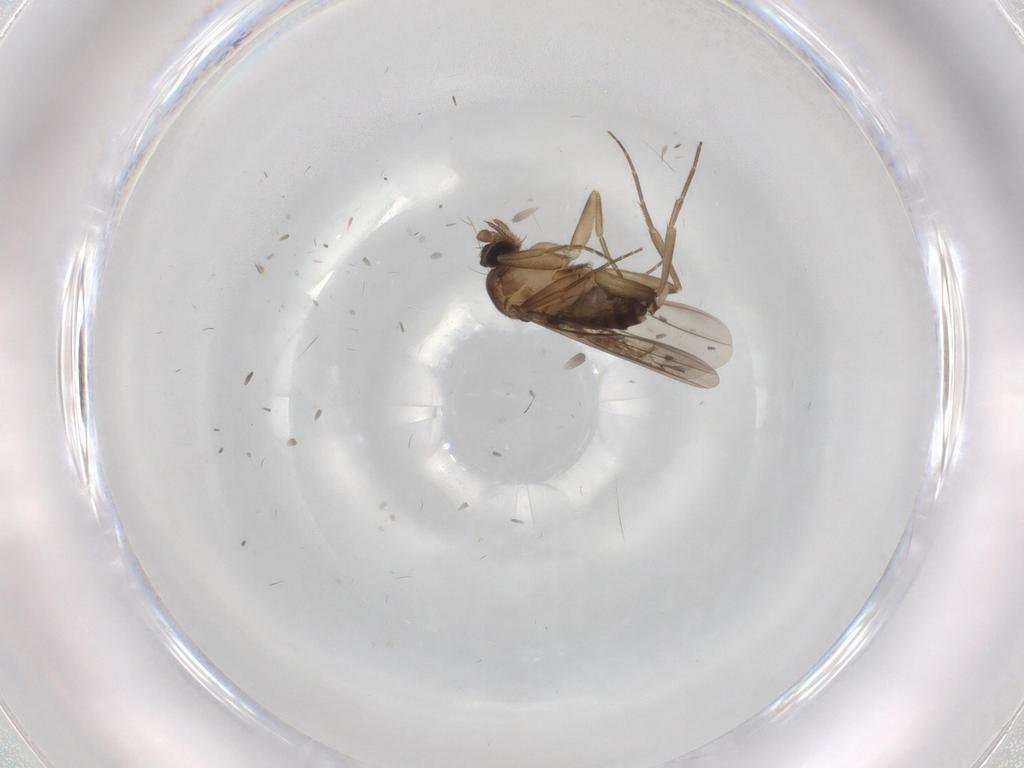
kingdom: Animalia
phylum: Arthropoda
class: Insecta
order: Diptera
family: Phoridae
